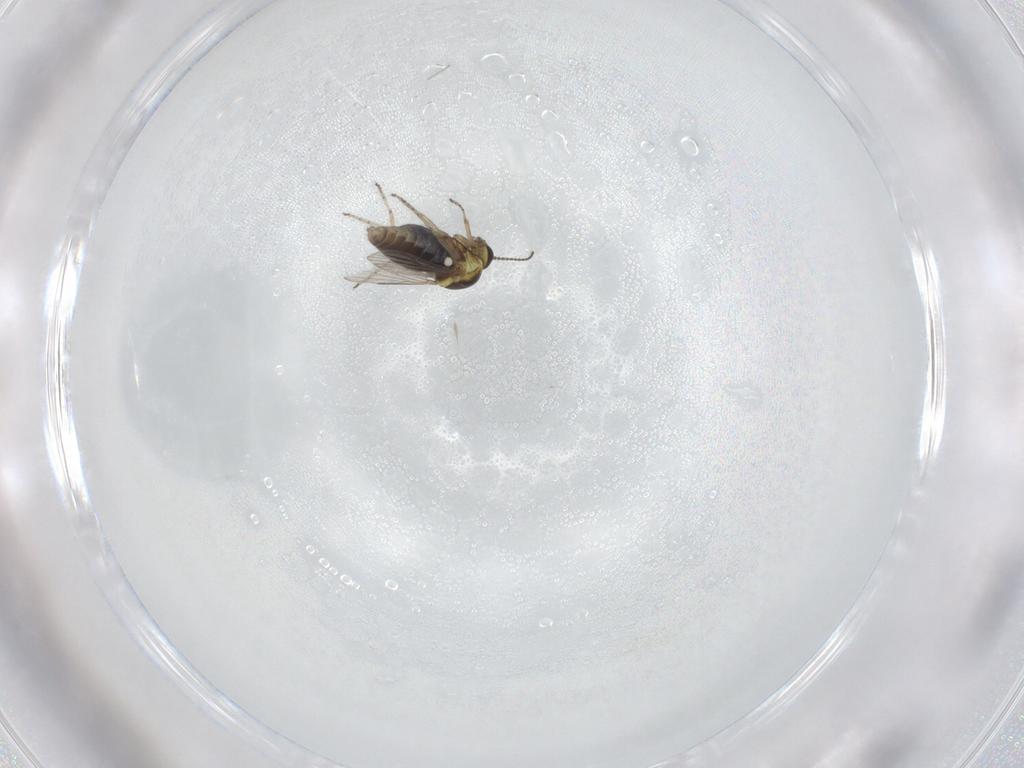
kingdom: Animalia
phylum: Arthropoda
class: Insecta
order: Diptera
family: Ceratopogonidae
